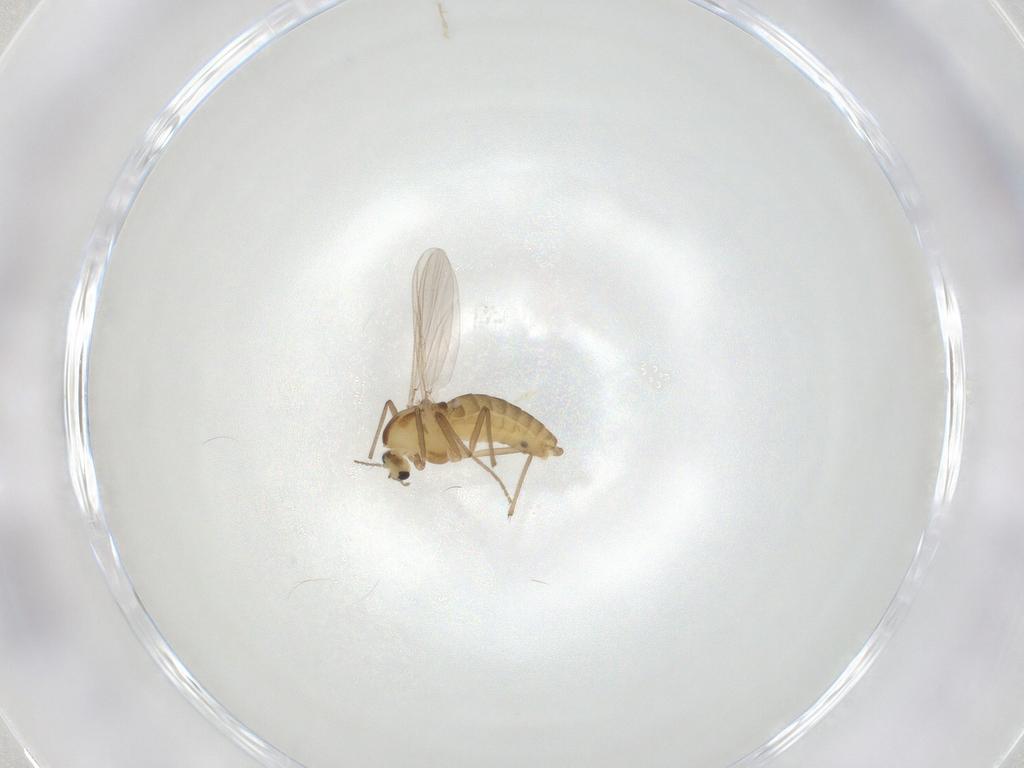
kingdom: Animalia
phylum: Arthropoda
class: Insecta
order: Diptera
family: Chironomidae
